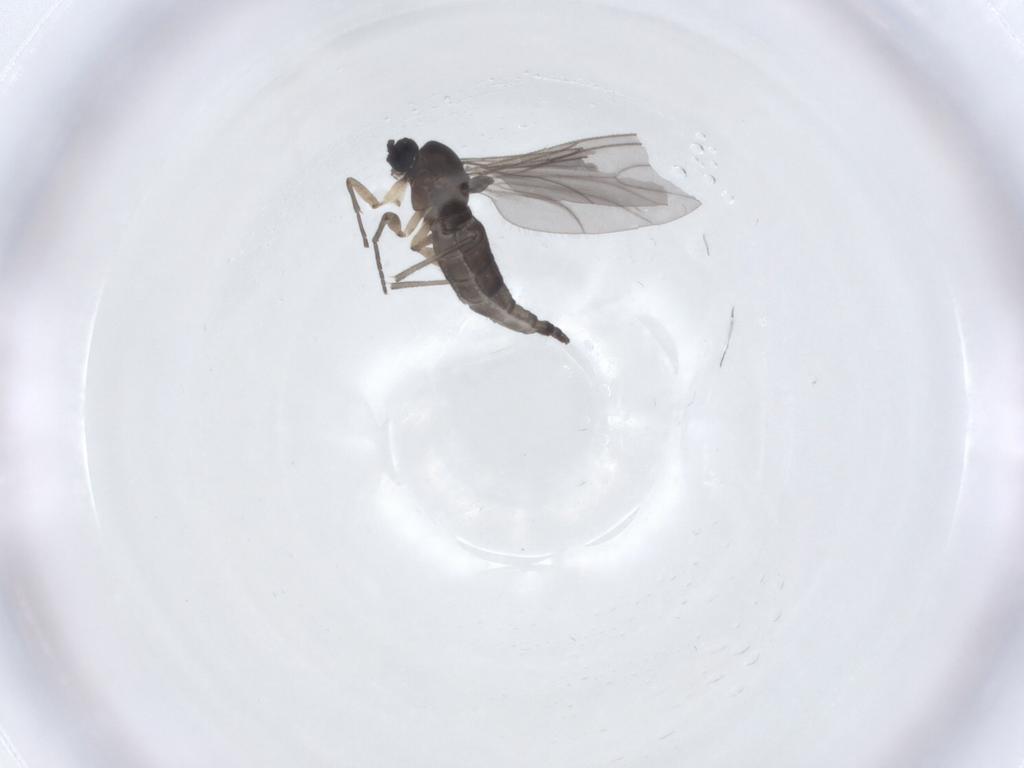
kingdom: Animalia
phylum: Arthropoda
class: Insecta
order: Diptera
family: Sciaridae
